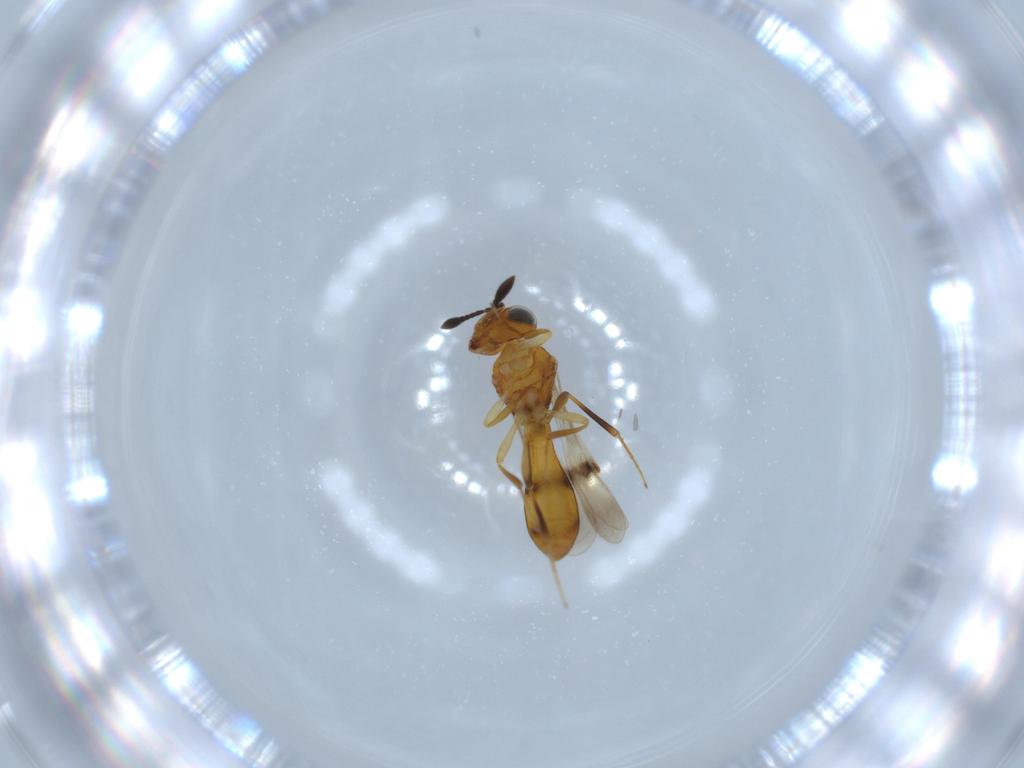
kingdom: Animalia
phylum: Arthropoda
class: Insecta
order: Hymenoptera
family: Scelionidae
